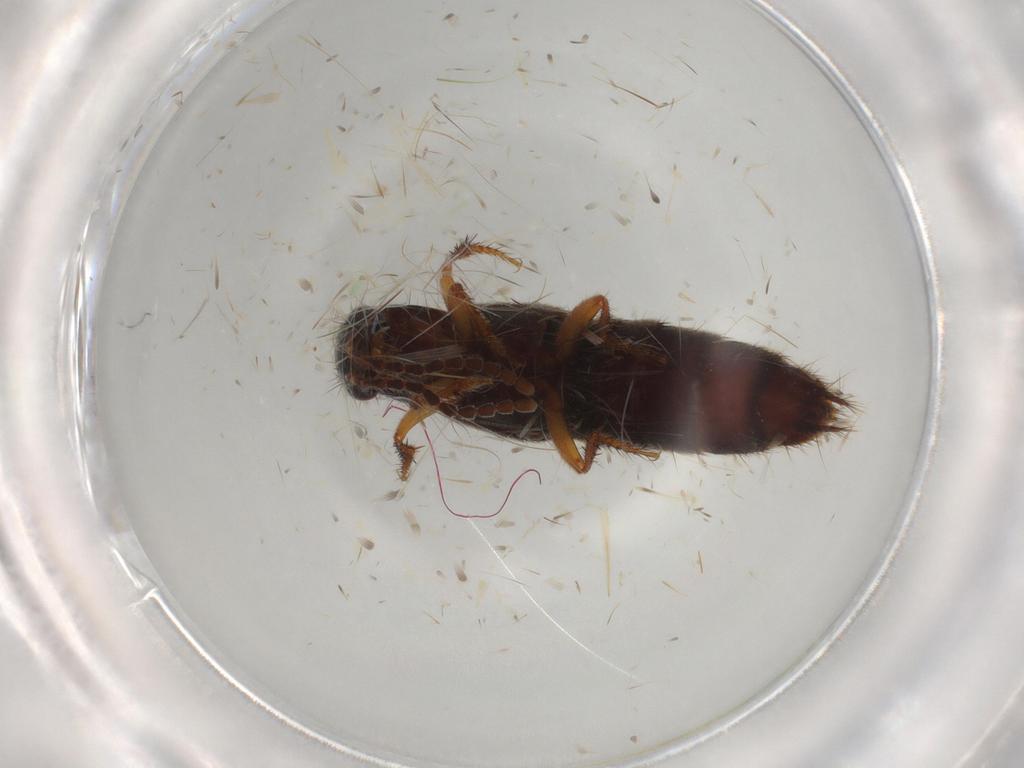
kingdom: Animalia
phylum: Arthropoda
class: Insecta
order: Coleoptera
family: Staphylinidae
